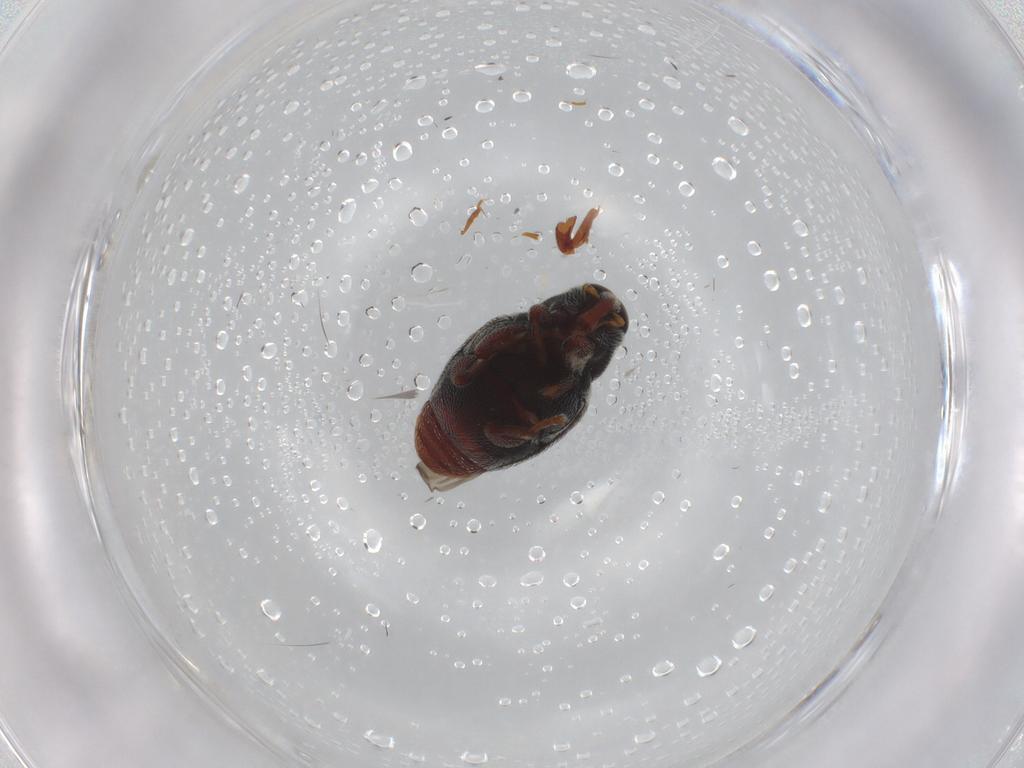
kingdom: Animalia
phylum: Arthropoda
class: Insecta
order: Coleoptera
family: Curculionidae
